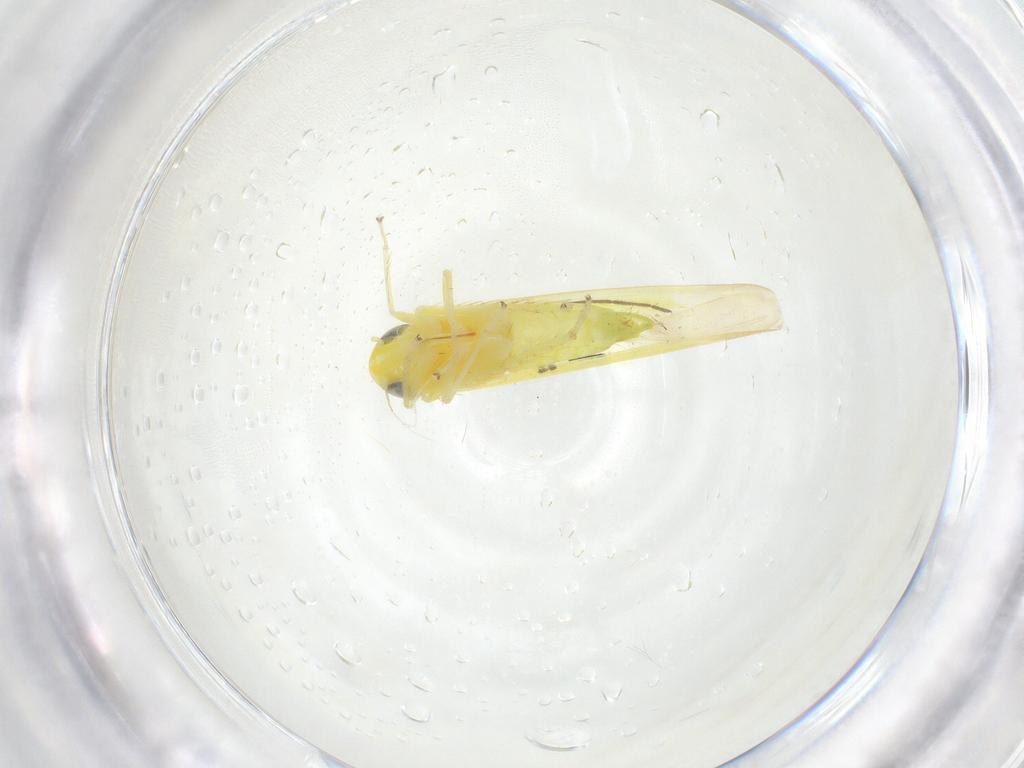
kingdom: Animalia
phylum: Arthropoda
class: Insecta
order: Hemiptera
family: Cicadellidae
